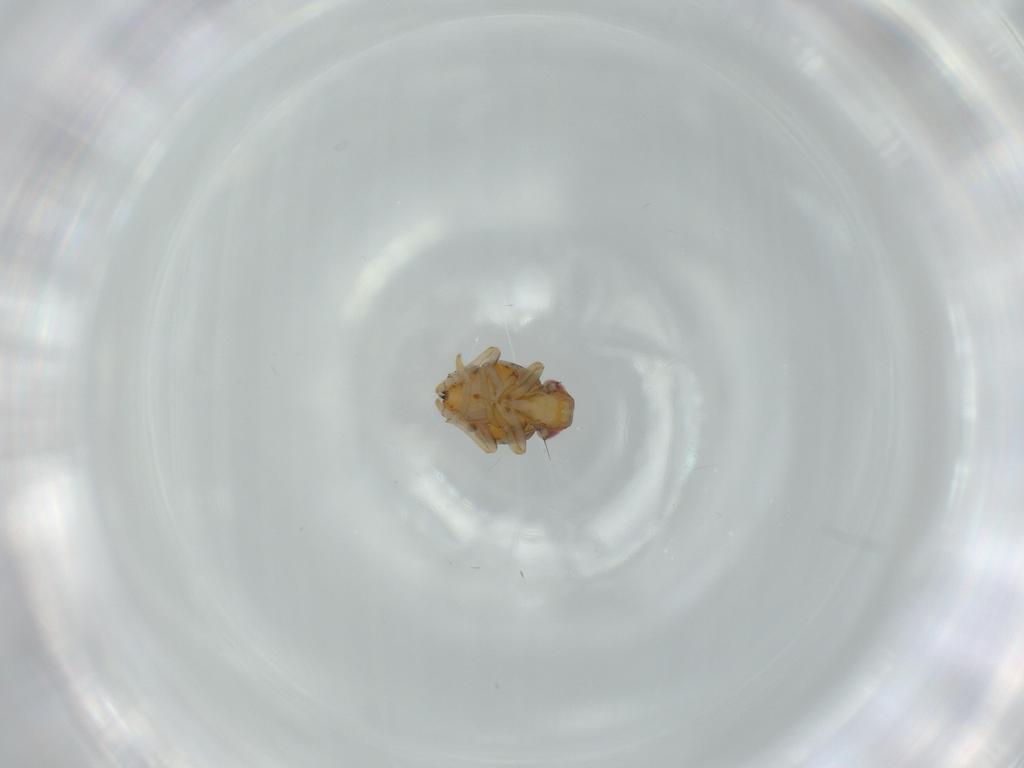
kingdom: Animalia
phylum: Arthropoda
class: Insecta
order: Hemiptera
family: Issidae
